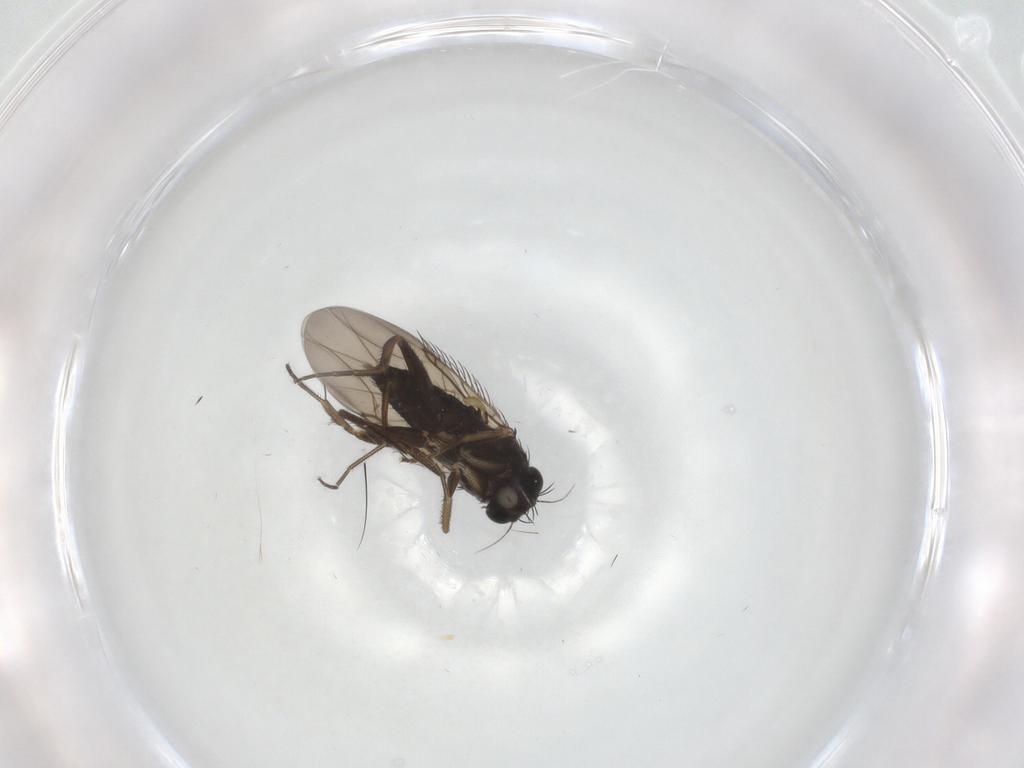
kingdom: Animalia
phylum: Arthropoda
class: Insecta
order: Diptera
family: Phoridae
